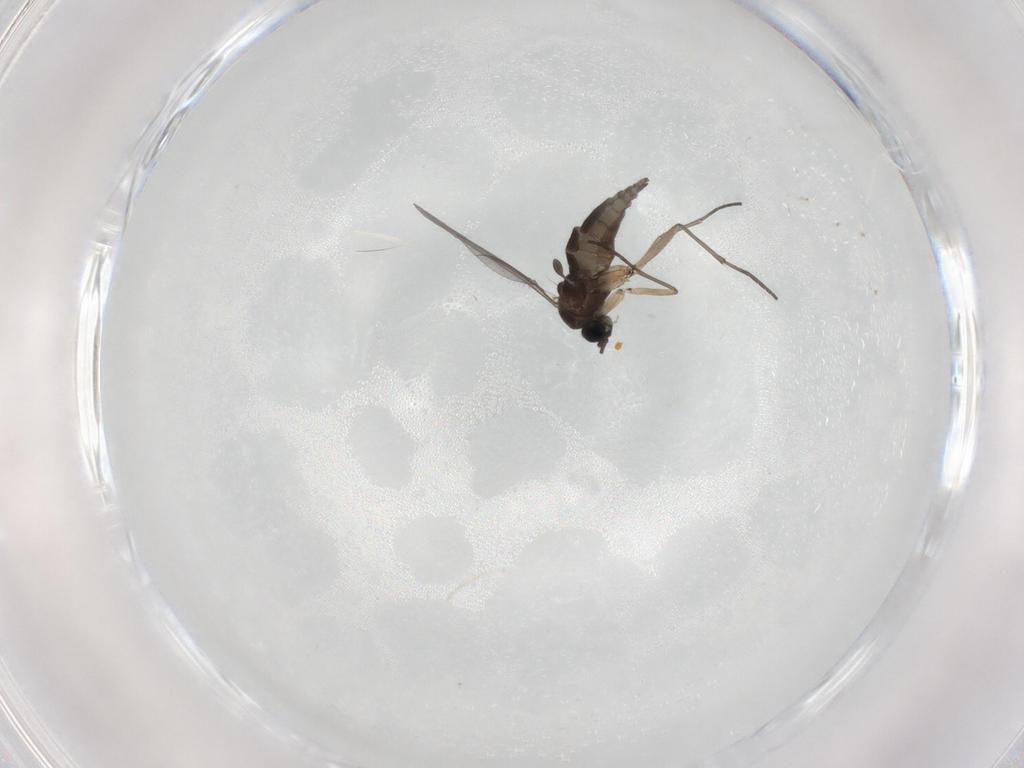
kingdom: Animalia
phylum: Arthropoda
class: Insecta
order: Diptera
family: Sciaridae
